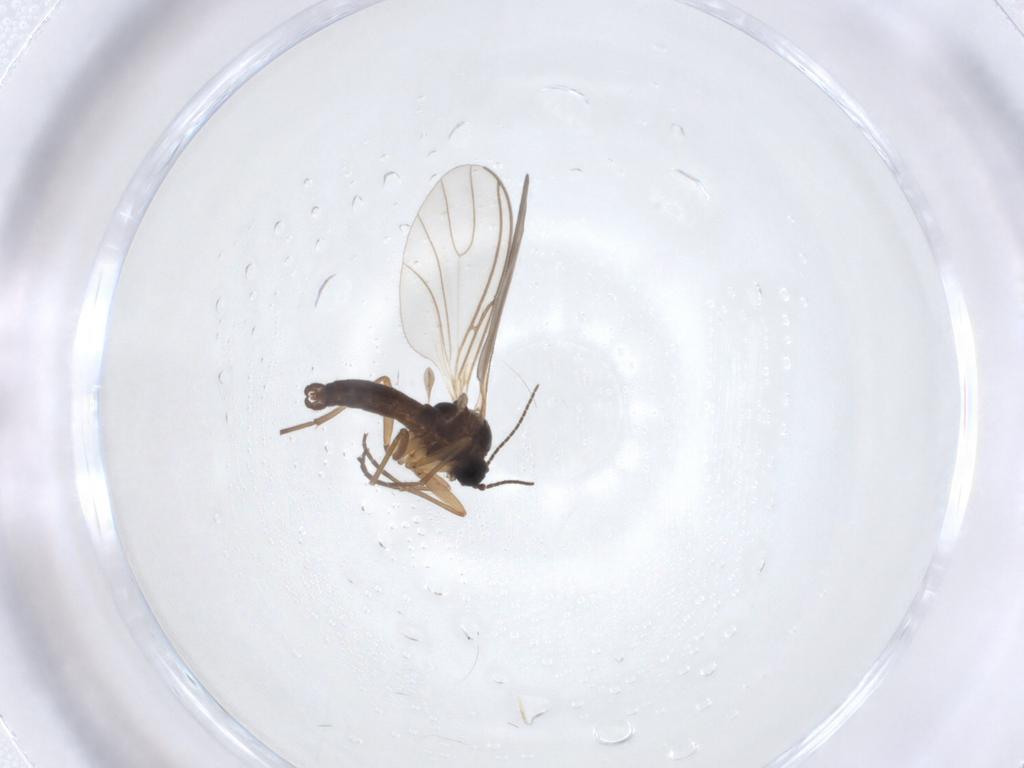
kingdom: Animalia
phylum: Arthropoda
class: Insecta
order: Diptera
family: Sciaridae
